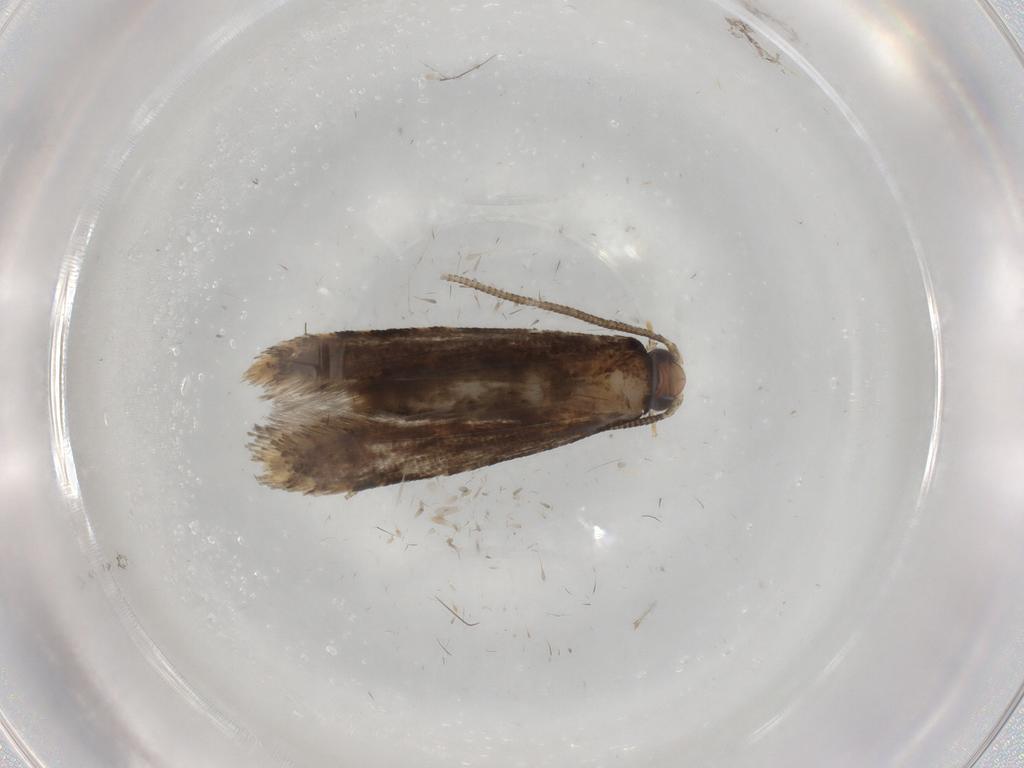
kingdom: Animalia
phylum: Arthropoda
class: Insecta
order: Lepidoptera
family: Tineidae
